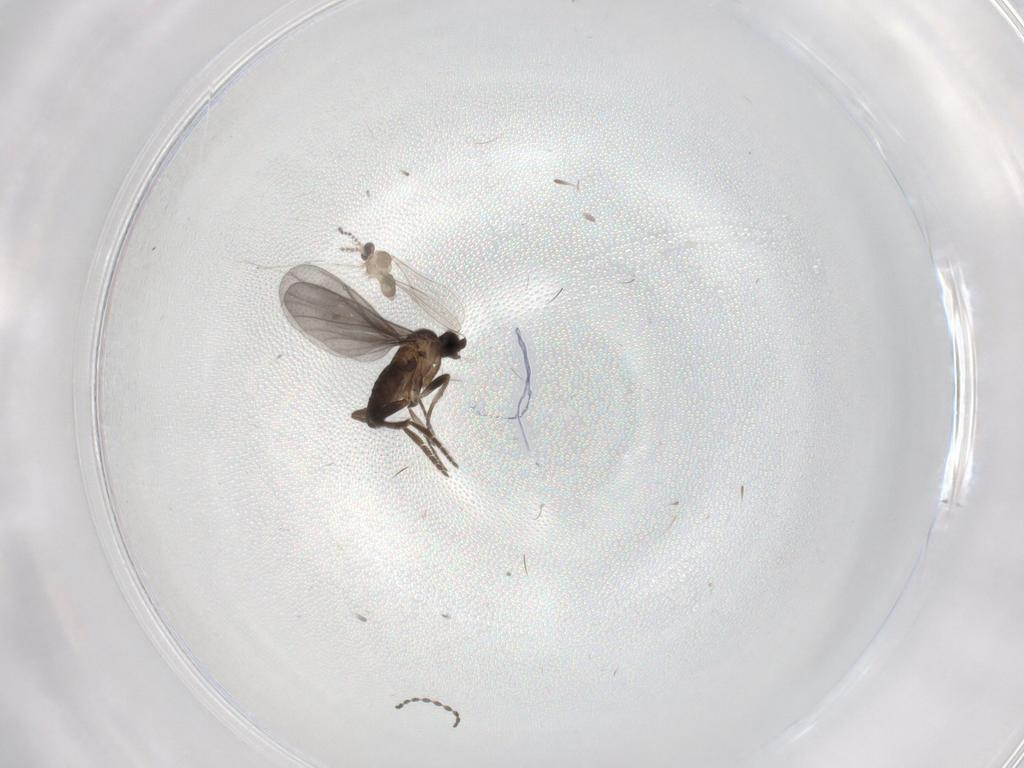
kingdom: Animalia
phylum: Arthropoda
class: Insecta
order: Diptera
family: Phoridae
